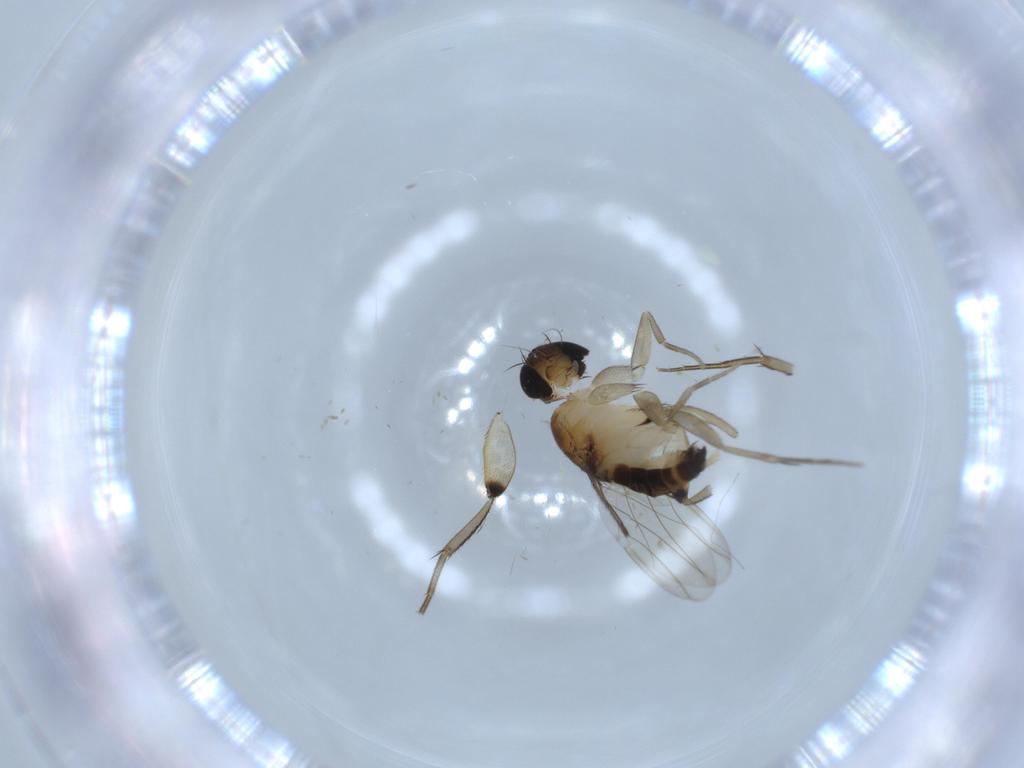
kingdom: Animalia
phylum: Arthropoda
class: Insecta
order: Diptera
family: Phoridae
